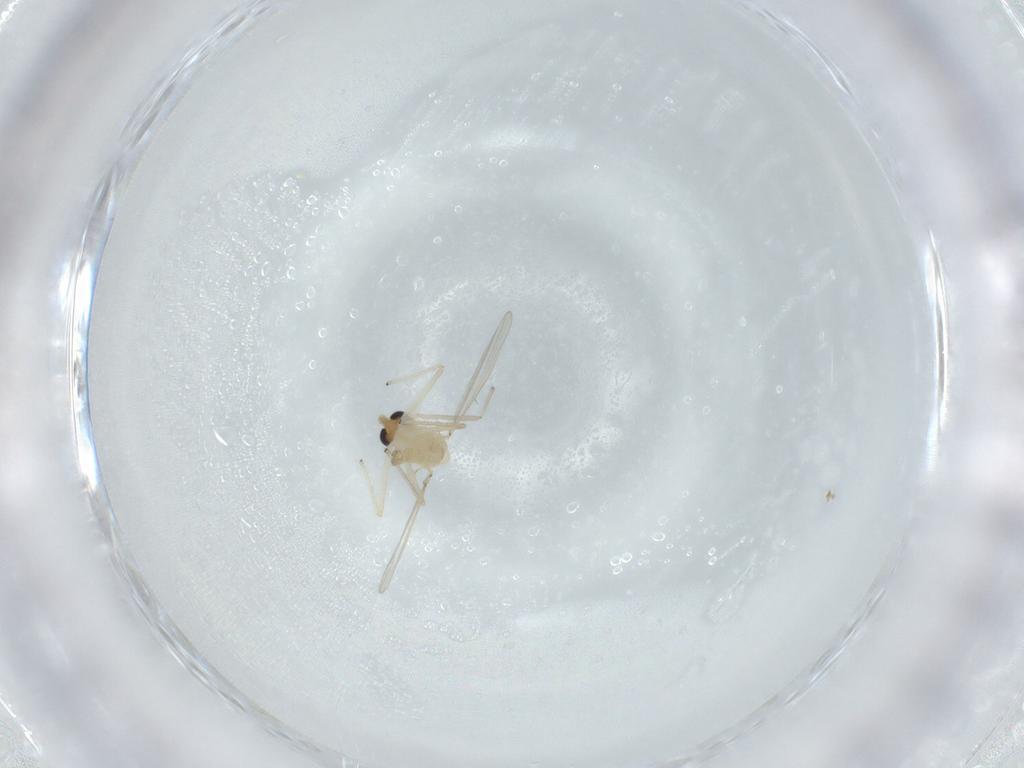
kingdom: Animalia
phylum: Arthropoda
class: Insecta
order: Diptera
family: Chironomidae
